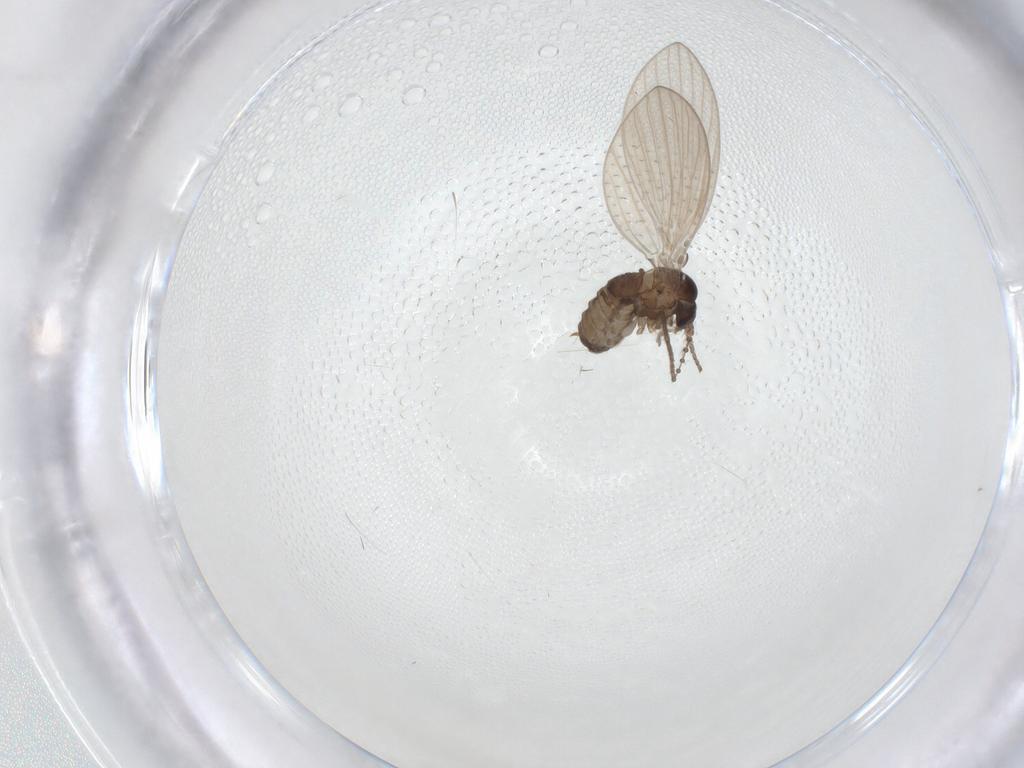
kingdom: Animalia
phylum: Arthropoda
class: Insecta
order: Diptera
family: Psychodidae
